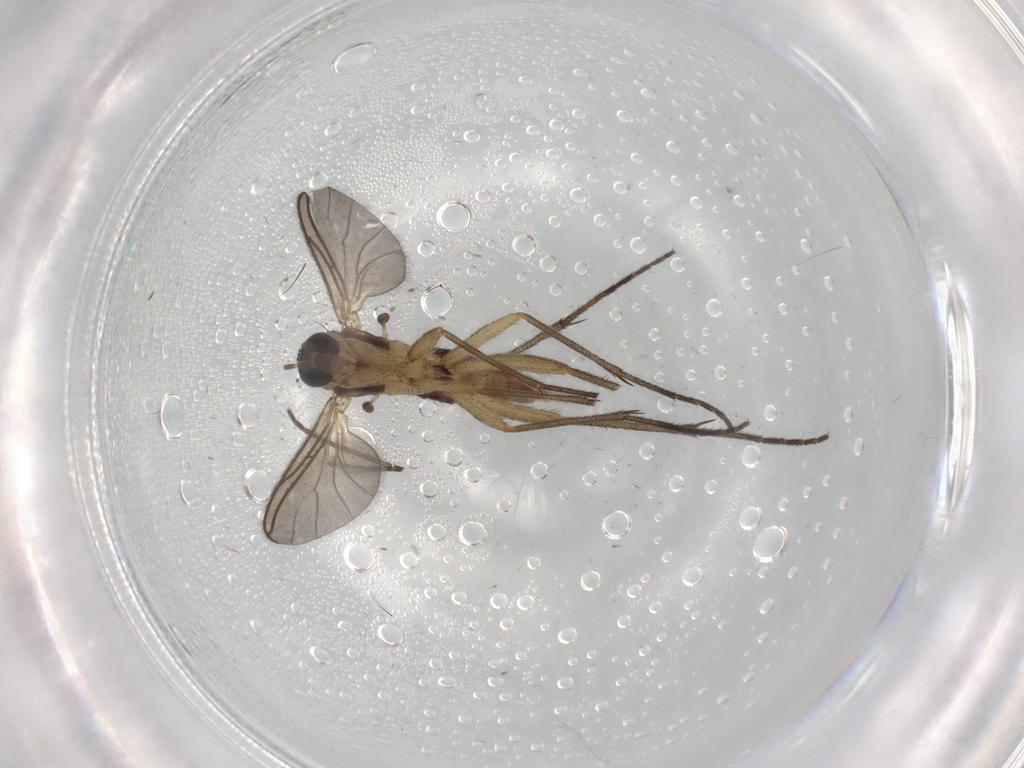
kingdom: Animalia
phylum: Arthropoda
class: Insecta
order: Diptera
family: Sciaridae
